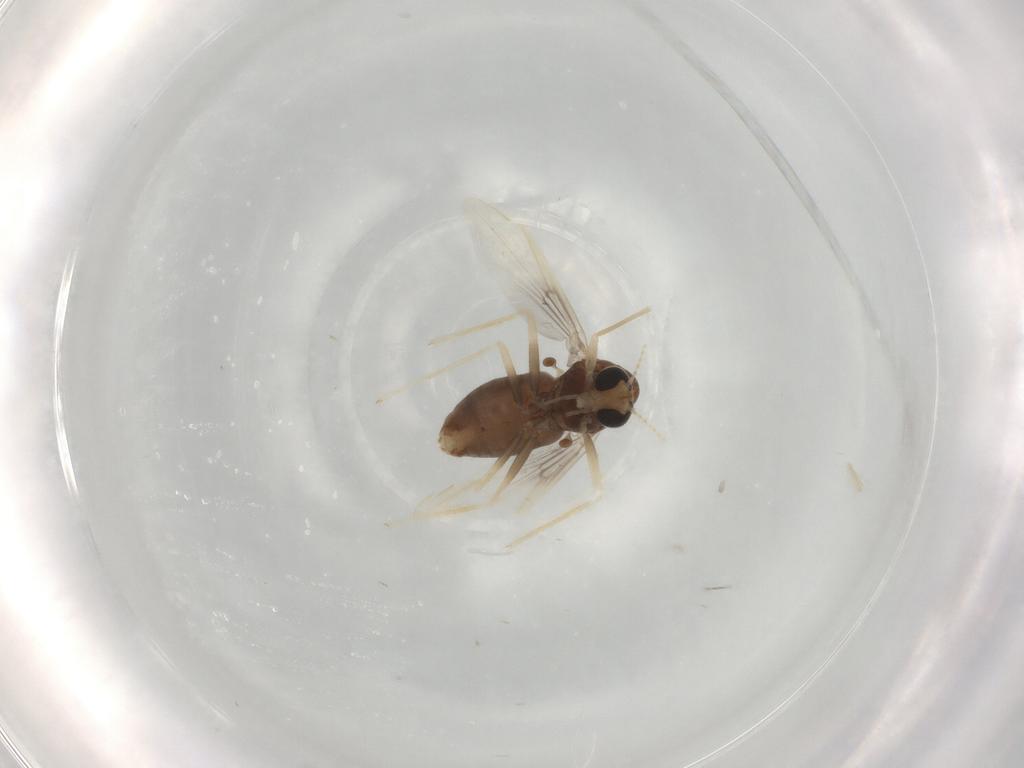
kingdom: Animalia
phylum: Arthropoda
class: Insecta
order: Diptera
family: Chironomidae
